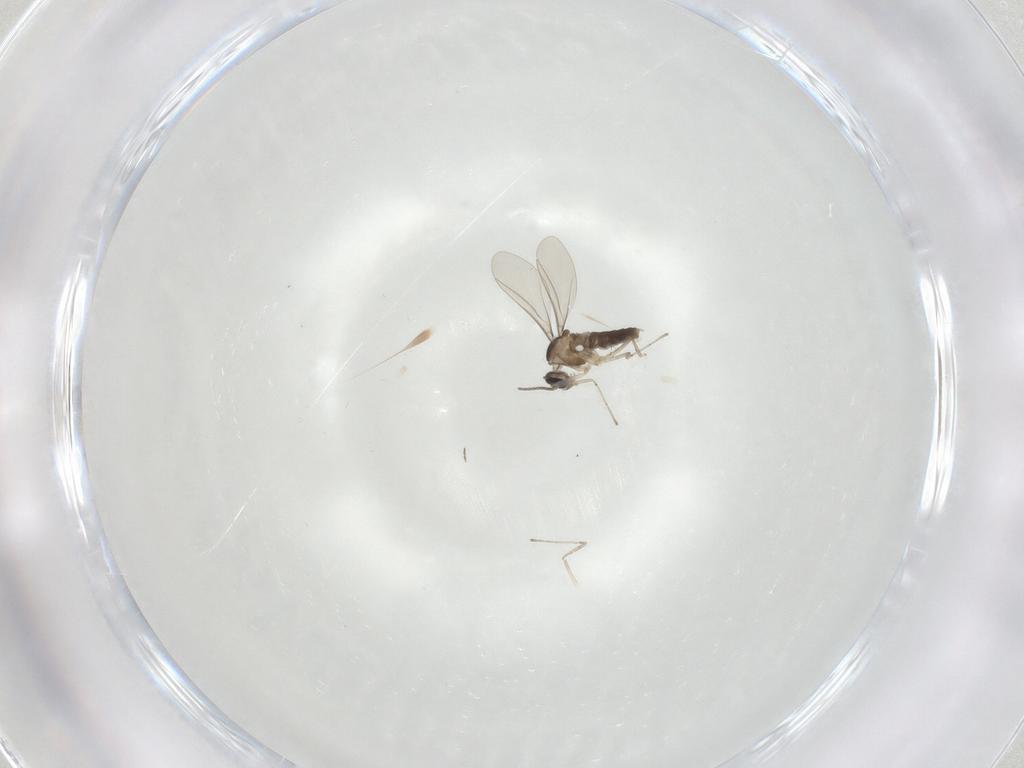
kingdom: Animalia
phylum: Arthropoda
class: Insecta
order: Diptera
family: Cecidomyiidae
